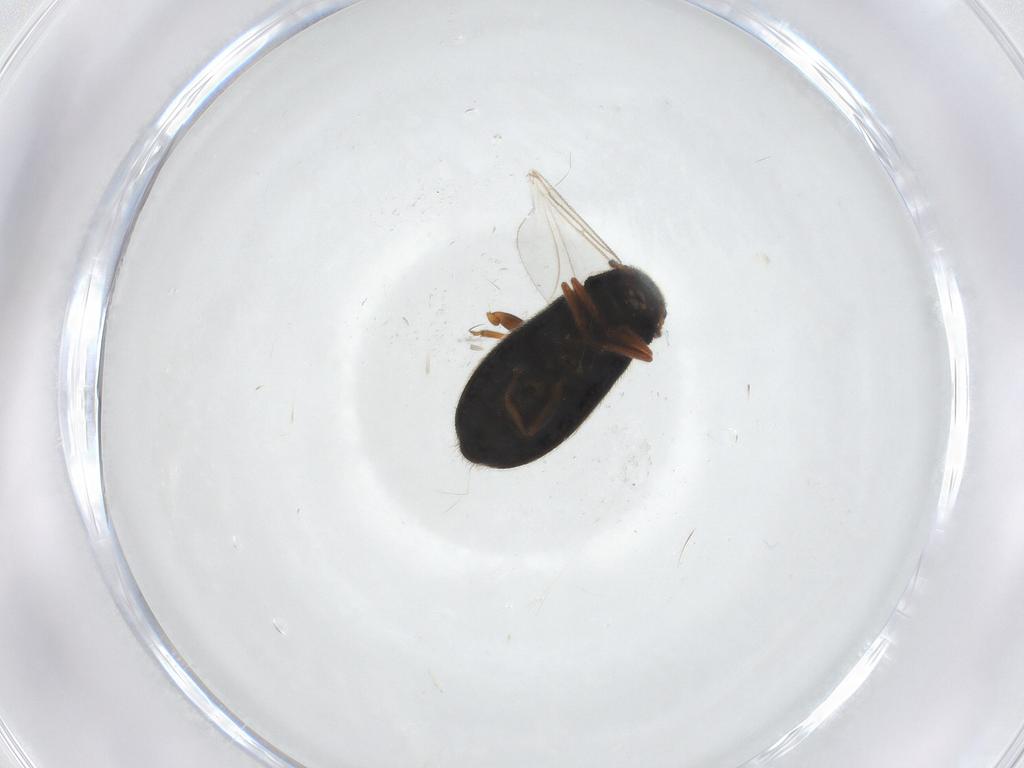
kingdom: Animalia
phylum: Arthropoda
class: Insecta
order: Coleoptera
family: Melyridae
